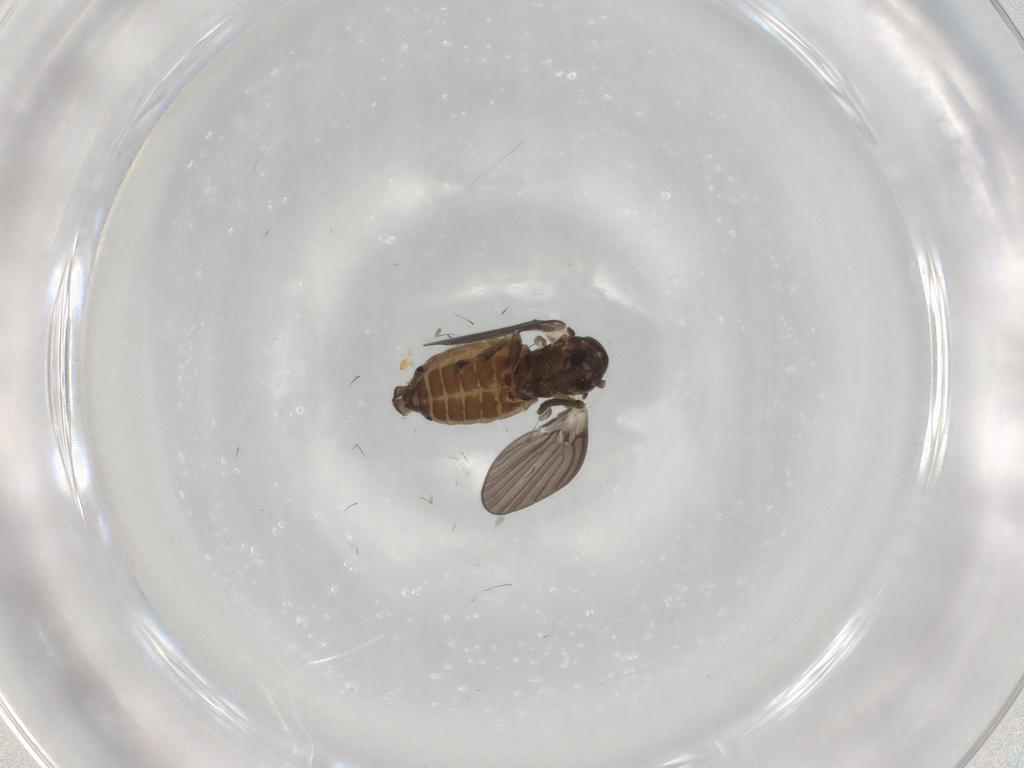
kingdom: Animalia
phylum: Arthropoda
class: Insecta
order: Diptera
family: Psychodidae
